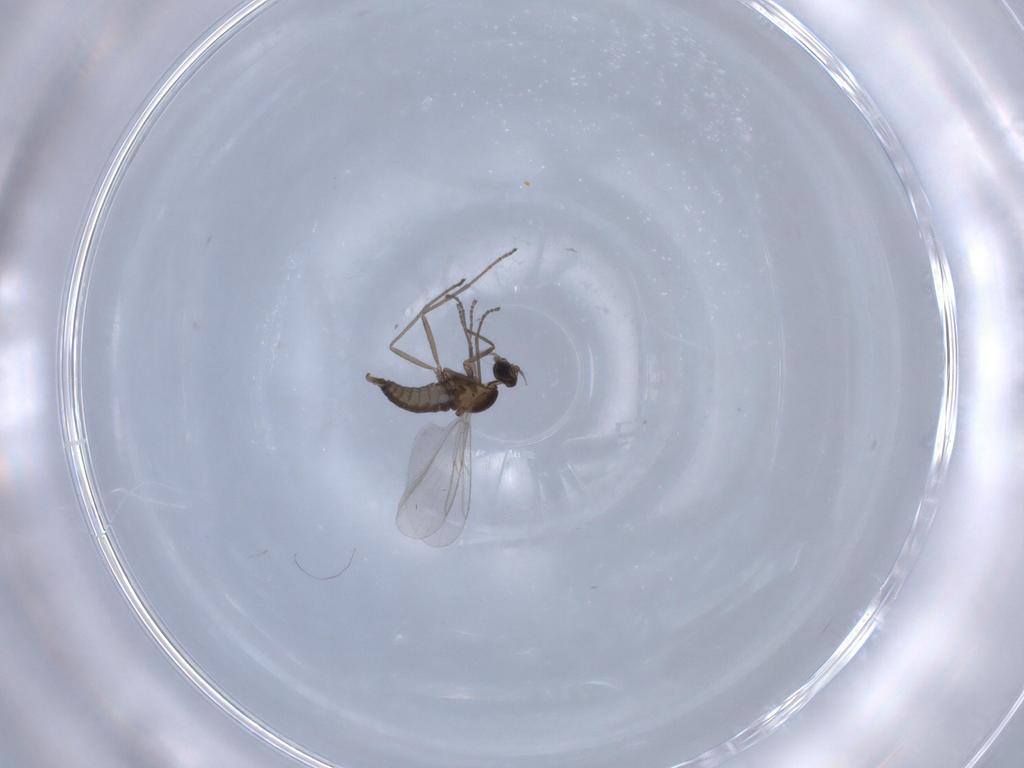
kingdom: Animalia
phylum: Arthropoda
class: Insecta
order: Diptera
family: Cecidomyiidae
